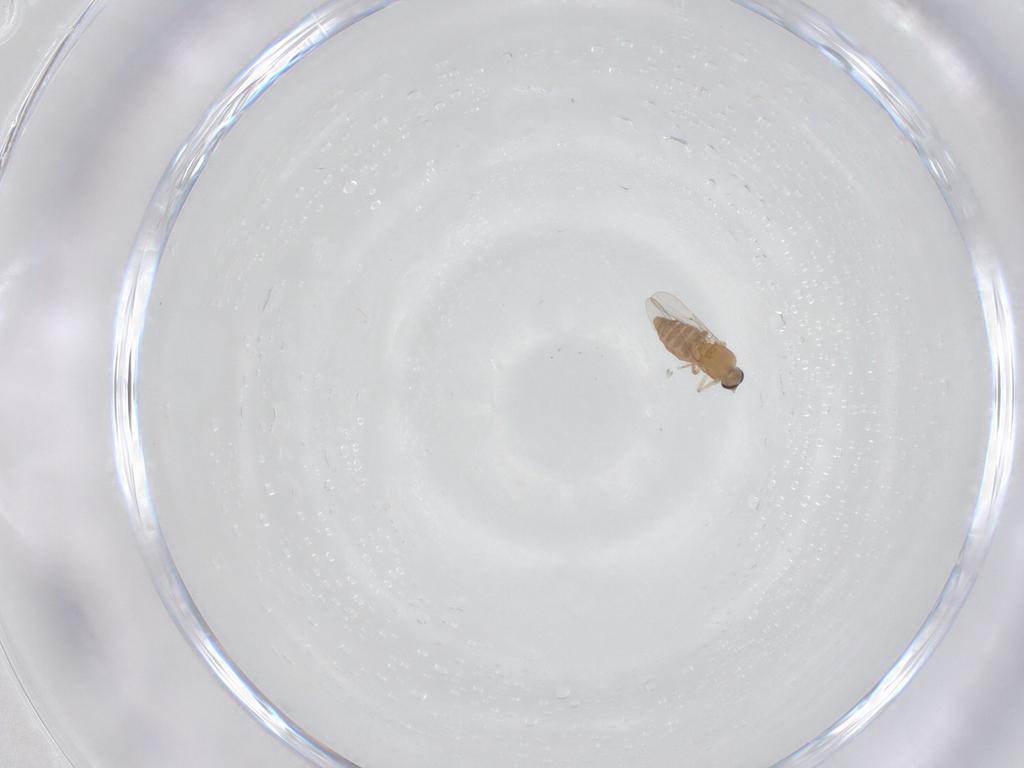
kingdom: Animalia
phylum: Arthropoda
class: Insecta
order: Diptera
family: Ceratopogonidae
